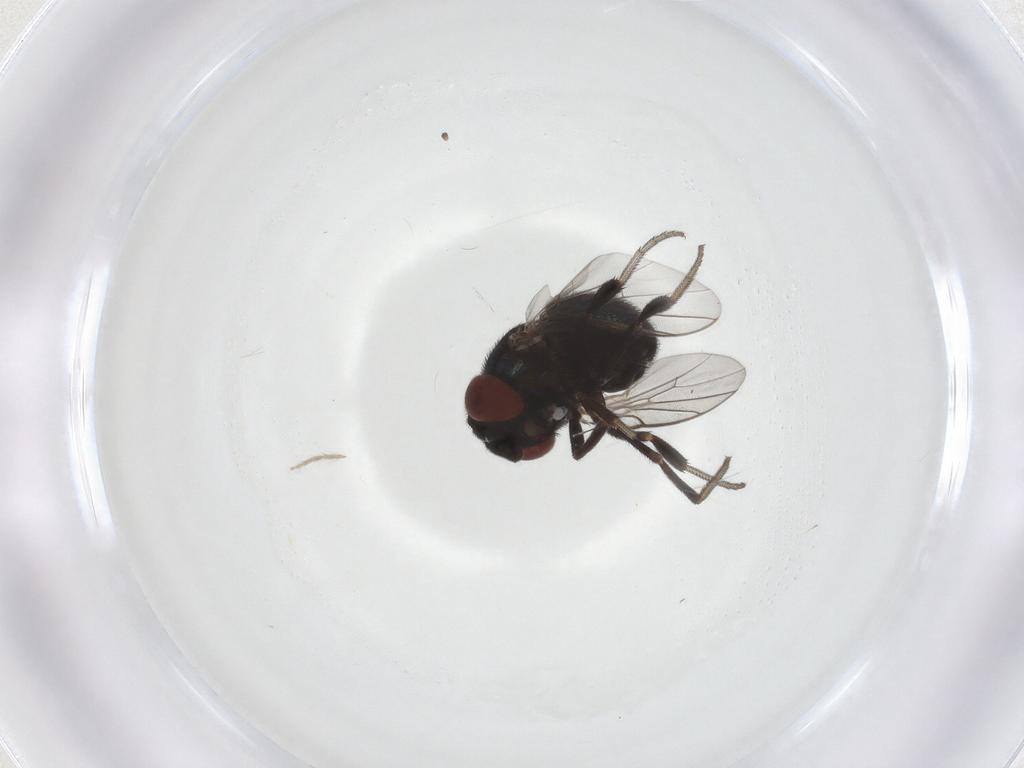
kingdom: Animalia
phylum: Arthropoda
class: Insecta
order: Diptera
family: Cryptochetidae
